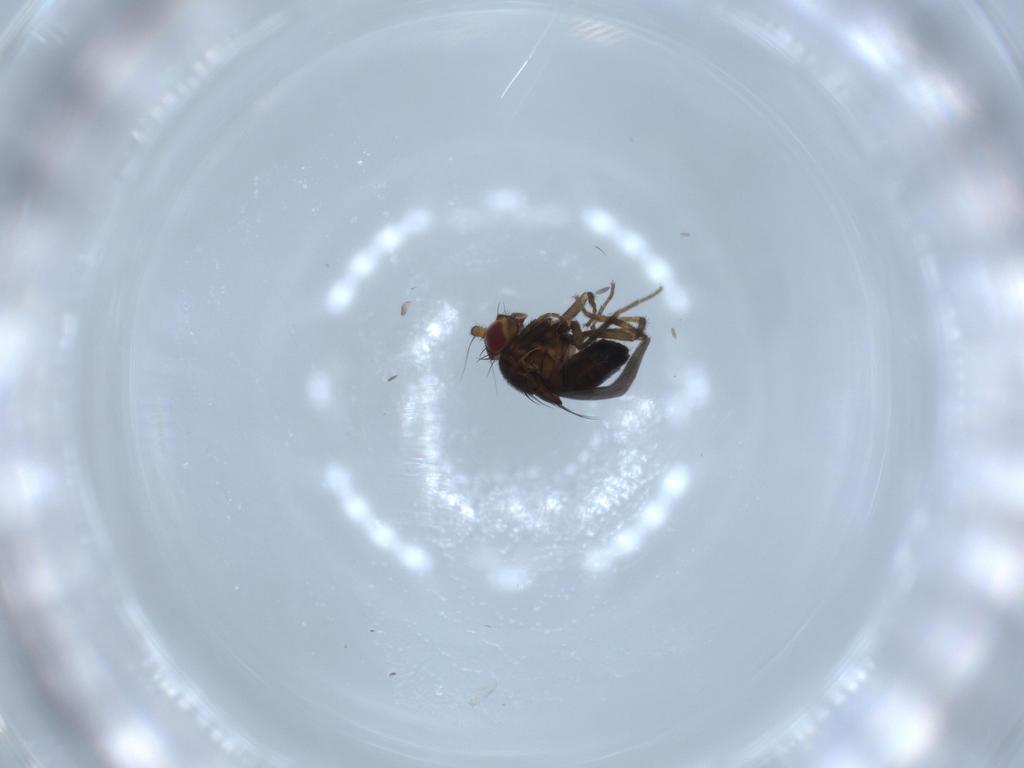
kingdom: Animalia
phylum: Arthropoda
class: Insecta
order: Diptera
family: Sphaeroceridae
